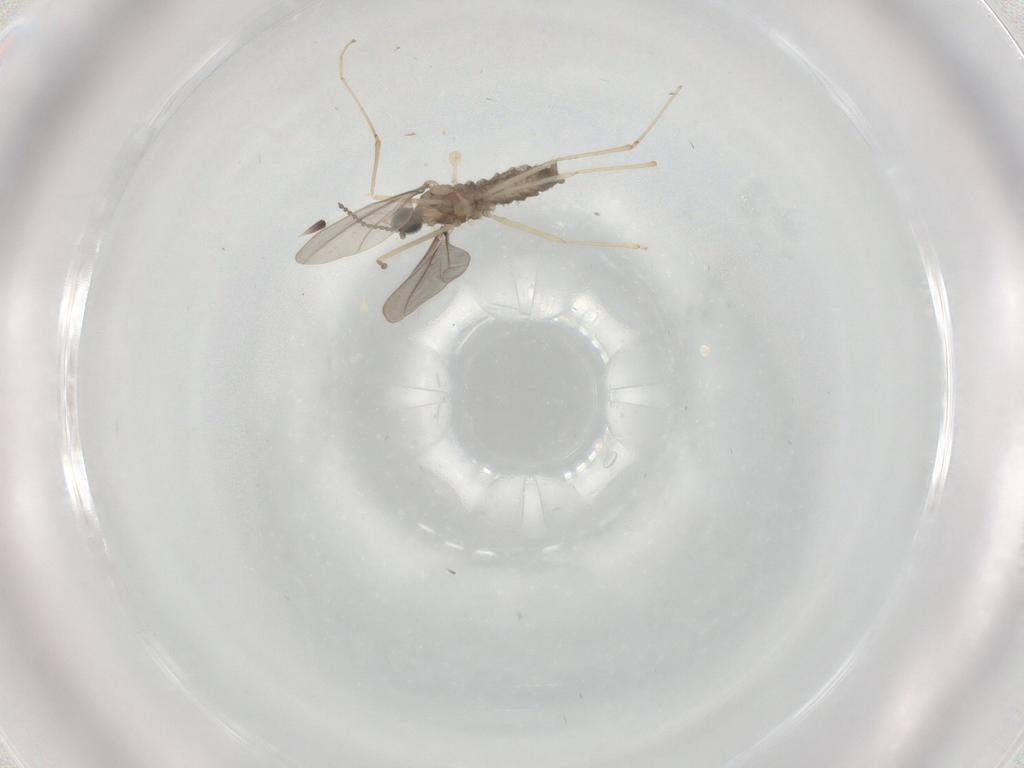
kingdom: Animalia
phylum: Arthropoda
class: Insecta
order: Diptera
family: Cecidomyiidae
